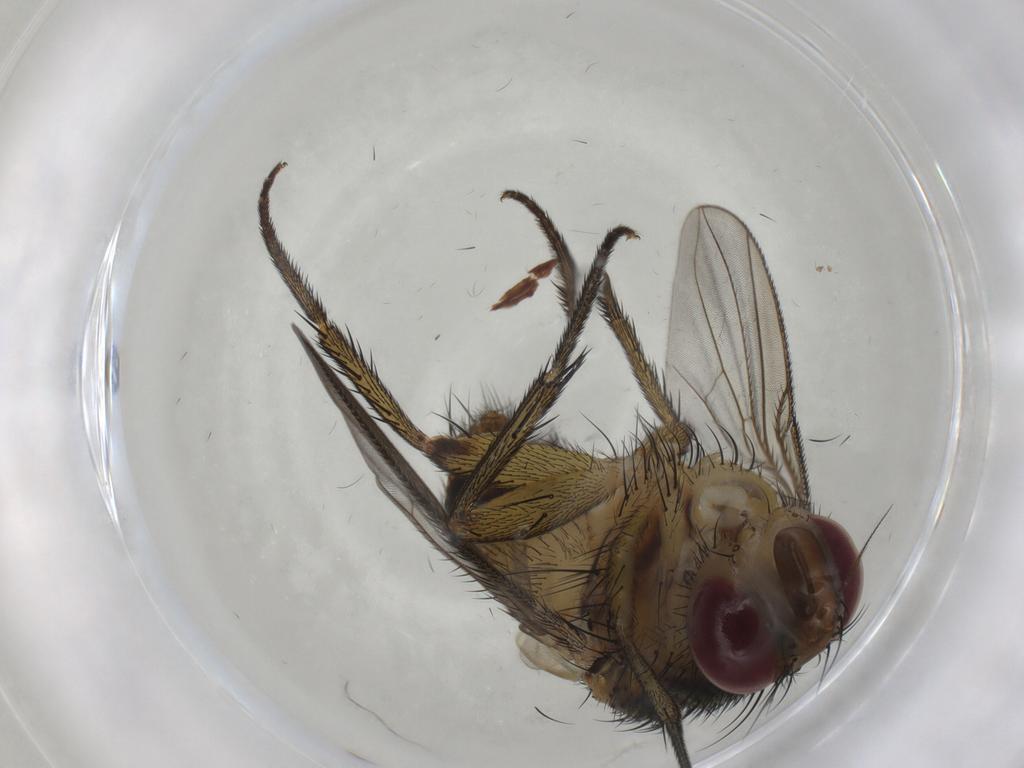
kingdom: Animalia
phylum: Arthropoda
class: Insecta
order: Diptera
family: Tachinidae
